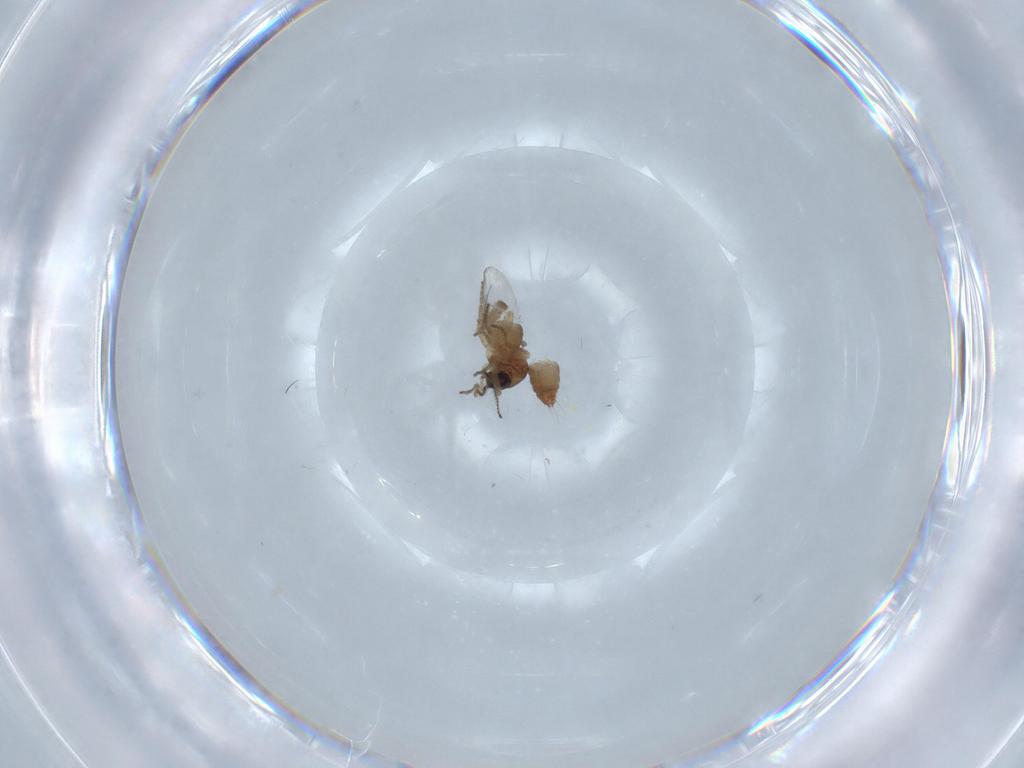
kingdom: Animalia
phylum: Arthropoda
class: Insecta
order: Diptera
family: Ceratopogonidae
